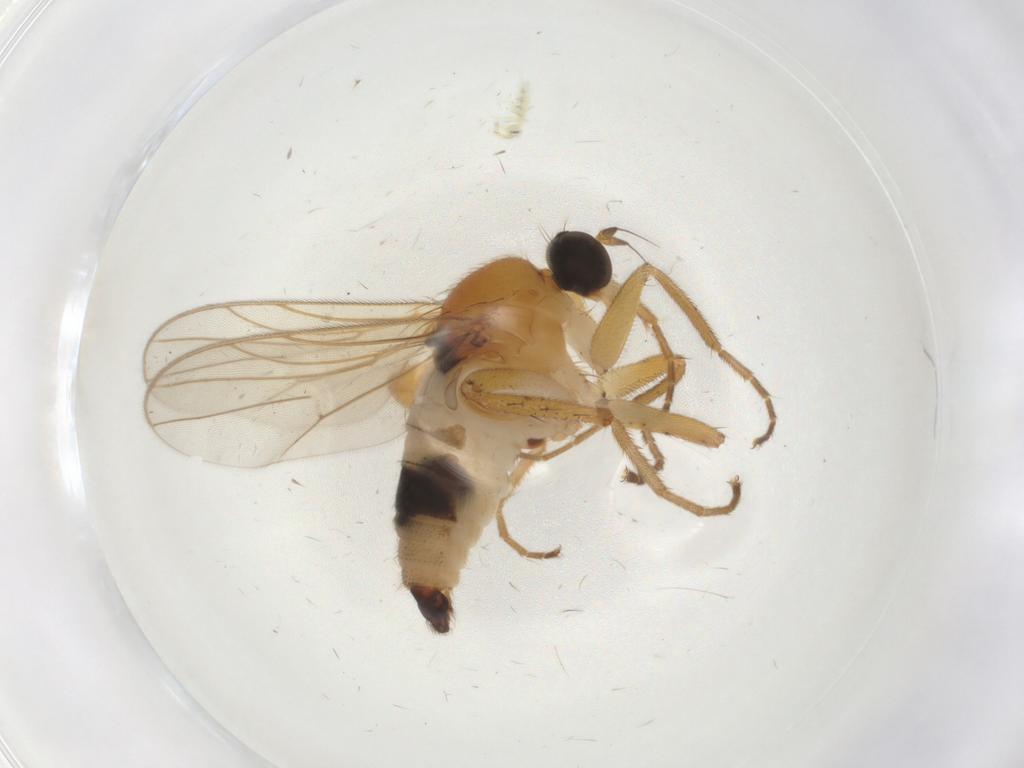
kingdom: Animalia
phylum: Arthropoda
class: Insecta
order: Diptera
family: Hybotidae
